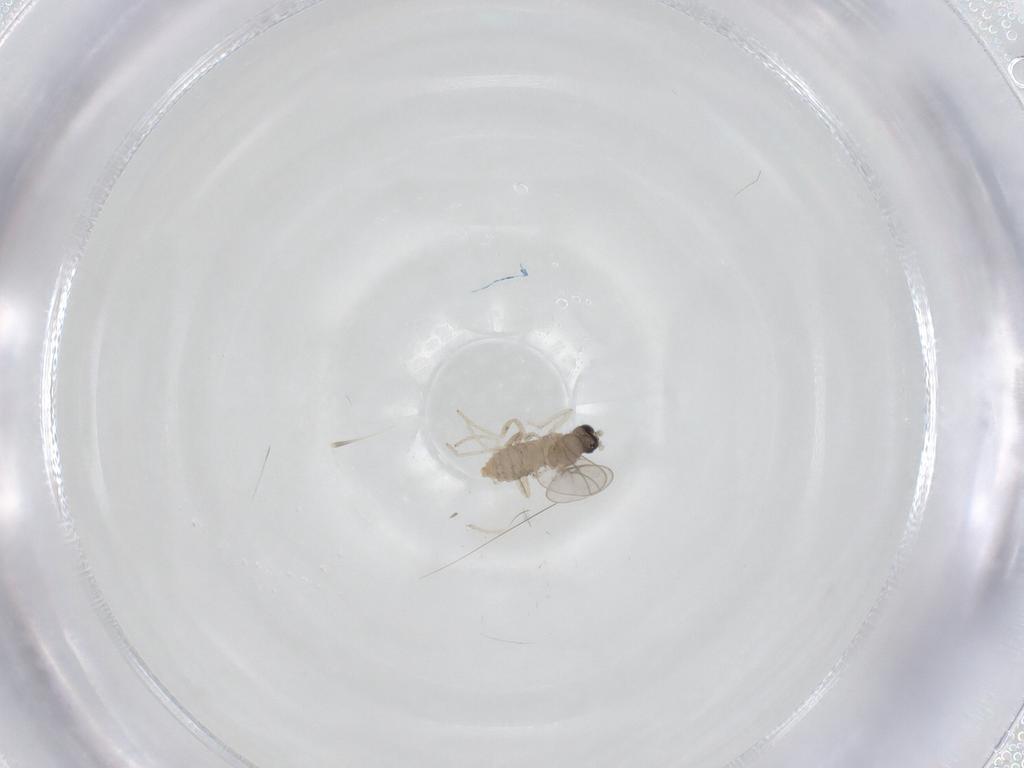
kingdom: Animalia
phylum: Arthropoda
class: Insecta
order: Diptera
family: Cecidomyiidae
